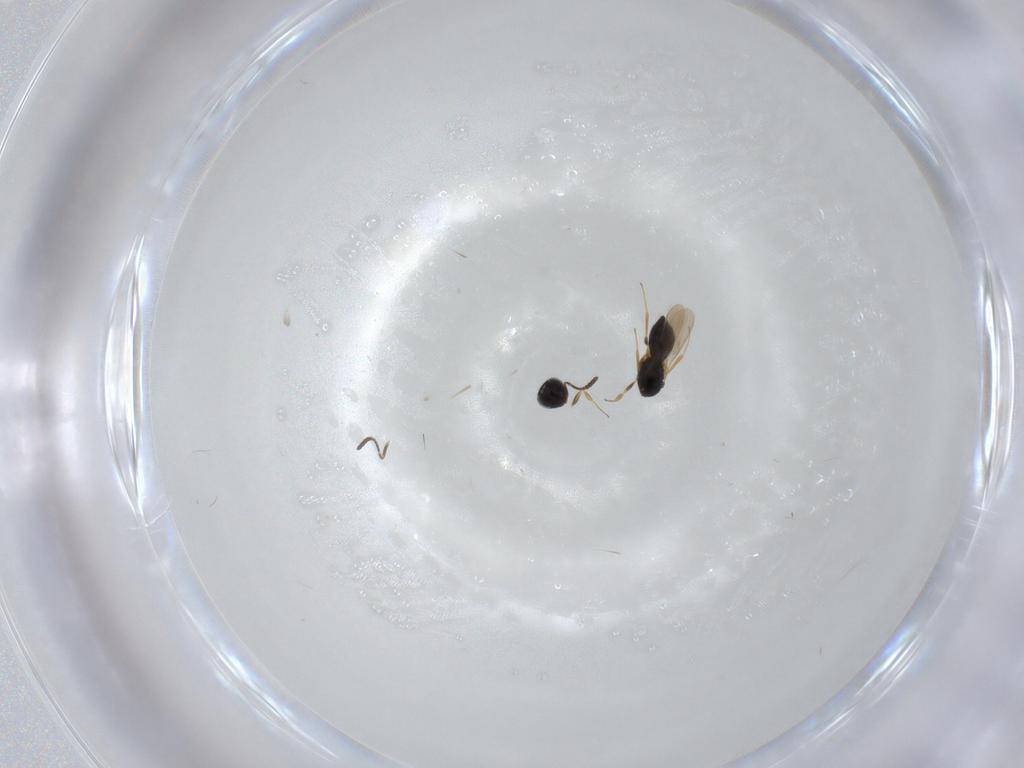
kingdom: Animalia
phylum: Arthropoda
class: Insecta
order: Hymenoptera
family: Scelionidae
